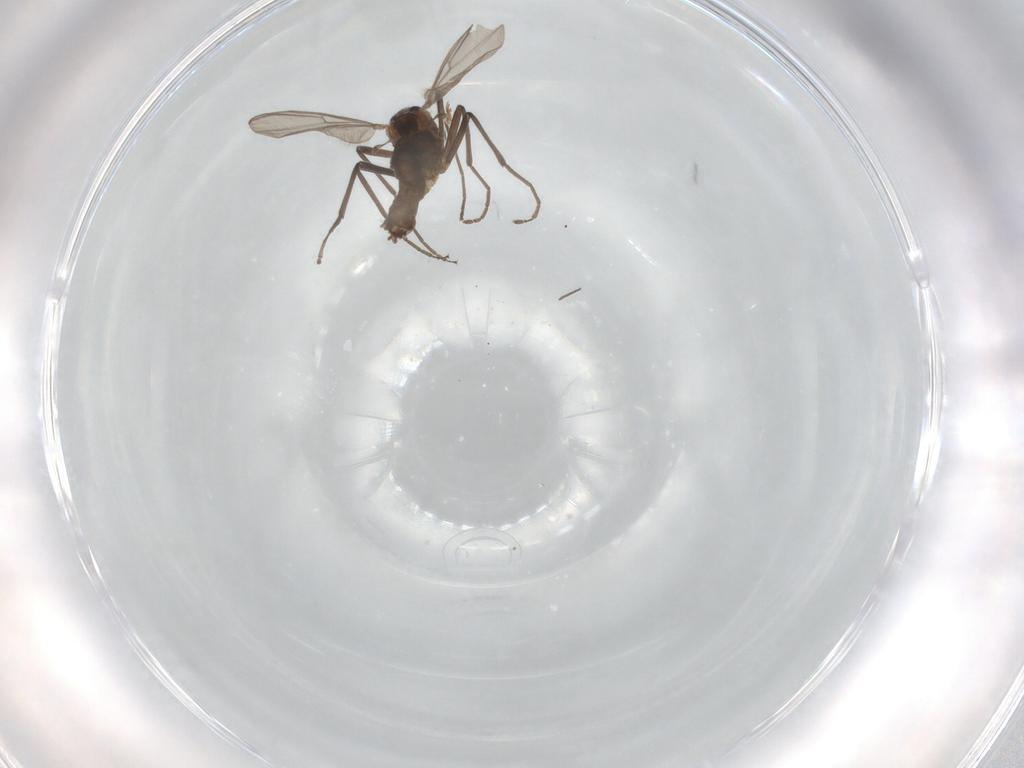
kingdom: Animalia
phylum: Arthropoda
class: Insecta
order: Diptera
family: Chironomidae
